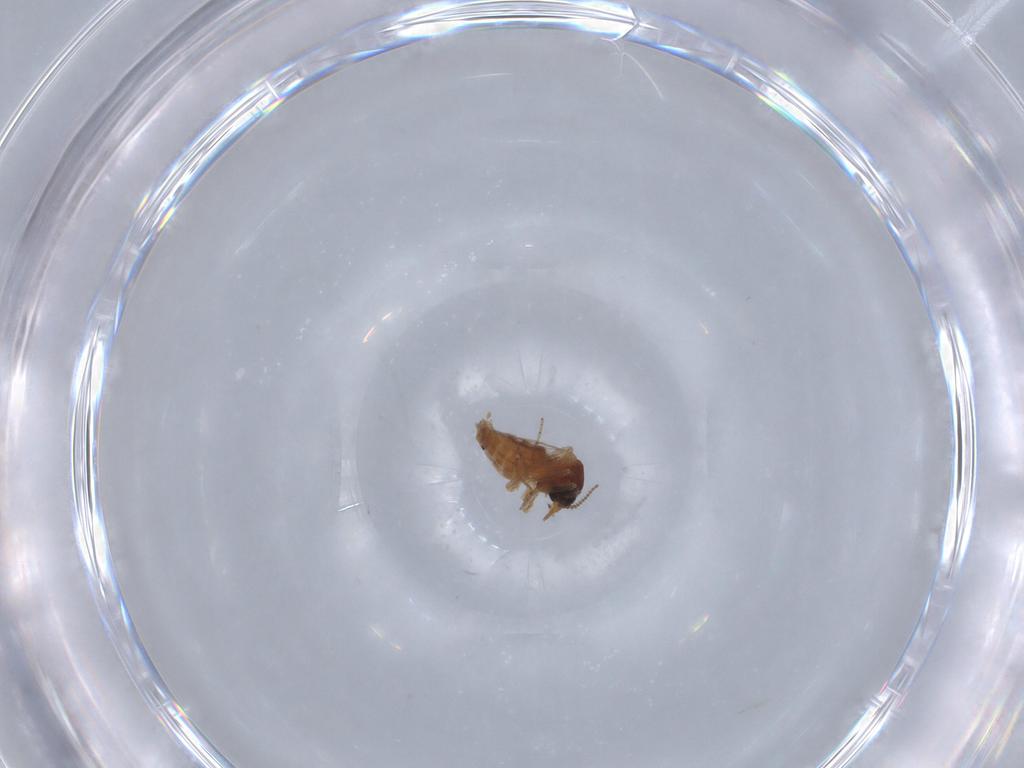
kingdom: Animalia
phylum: Arthropoda
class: Insecta
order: Diptera
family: Ceratopogonidae
